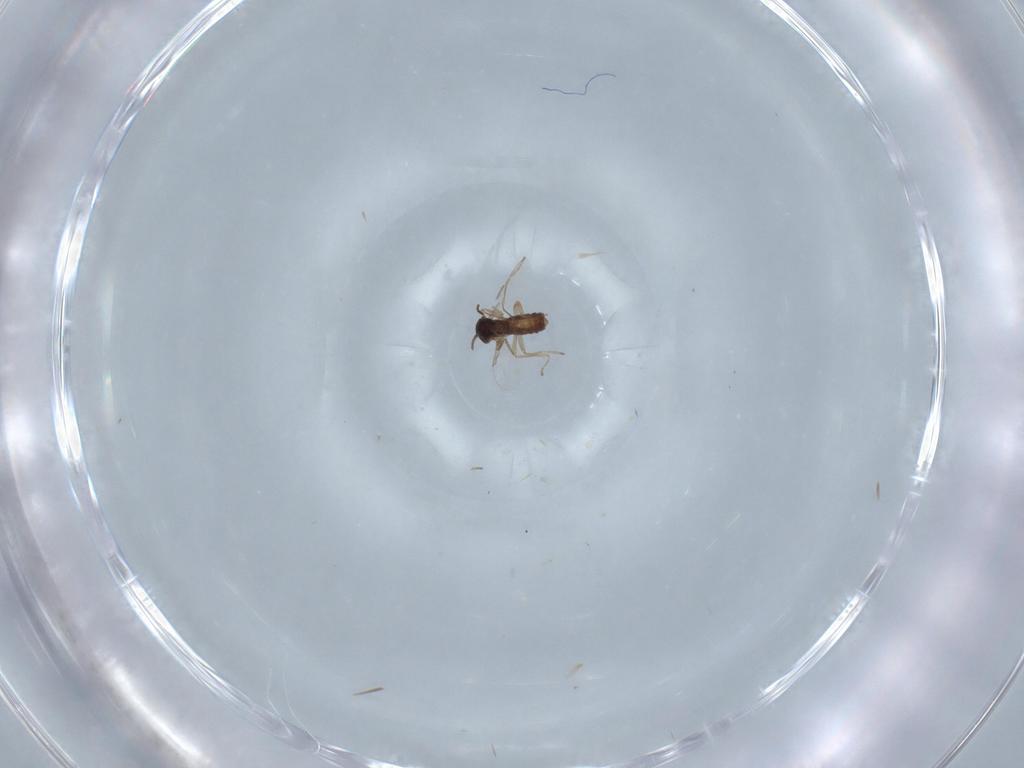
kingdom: Animalia
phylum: Arthropoda
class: Insecta
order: Diptera
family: Ceratopogonidae
